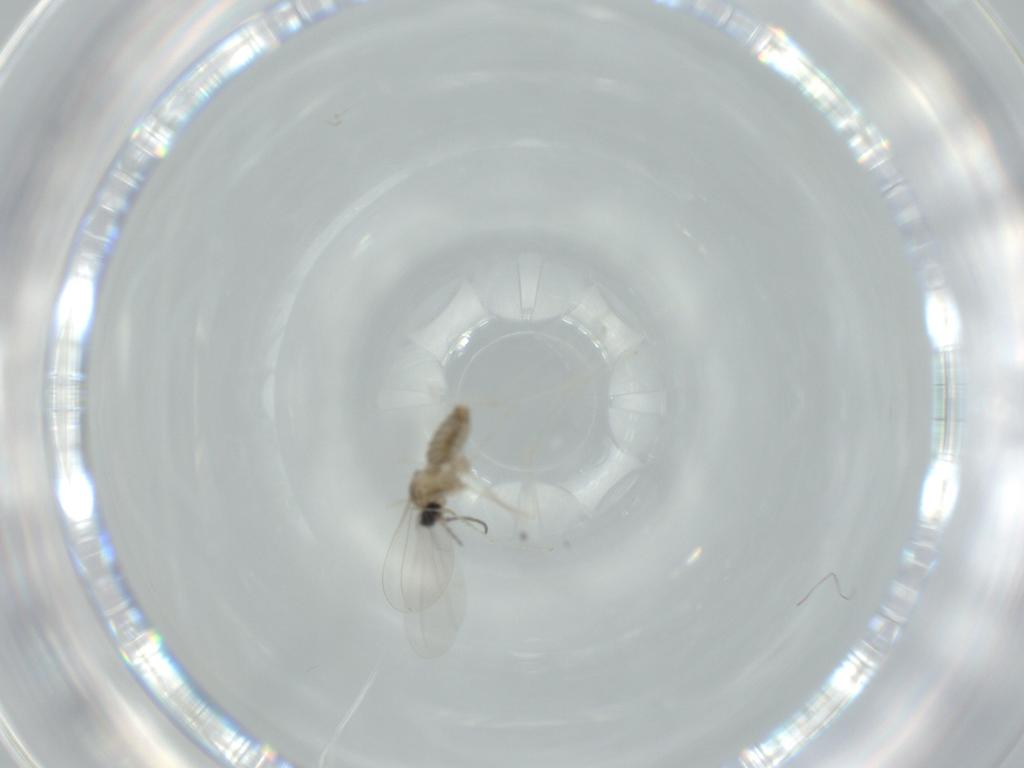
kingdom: Animalia
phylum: Arthropoda
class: Insecta
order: Diptera
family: Cecidomyiidae
